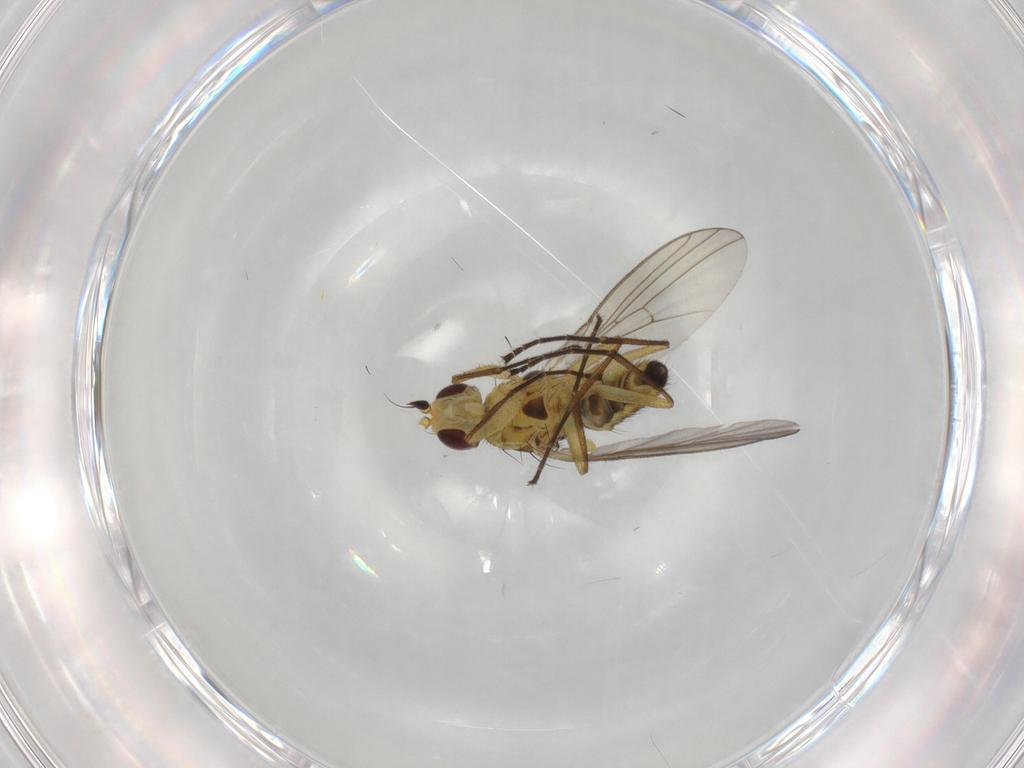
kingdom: Animalia
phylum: Arthropoda
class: Insecta
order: Diptera
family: Agromyzidae
